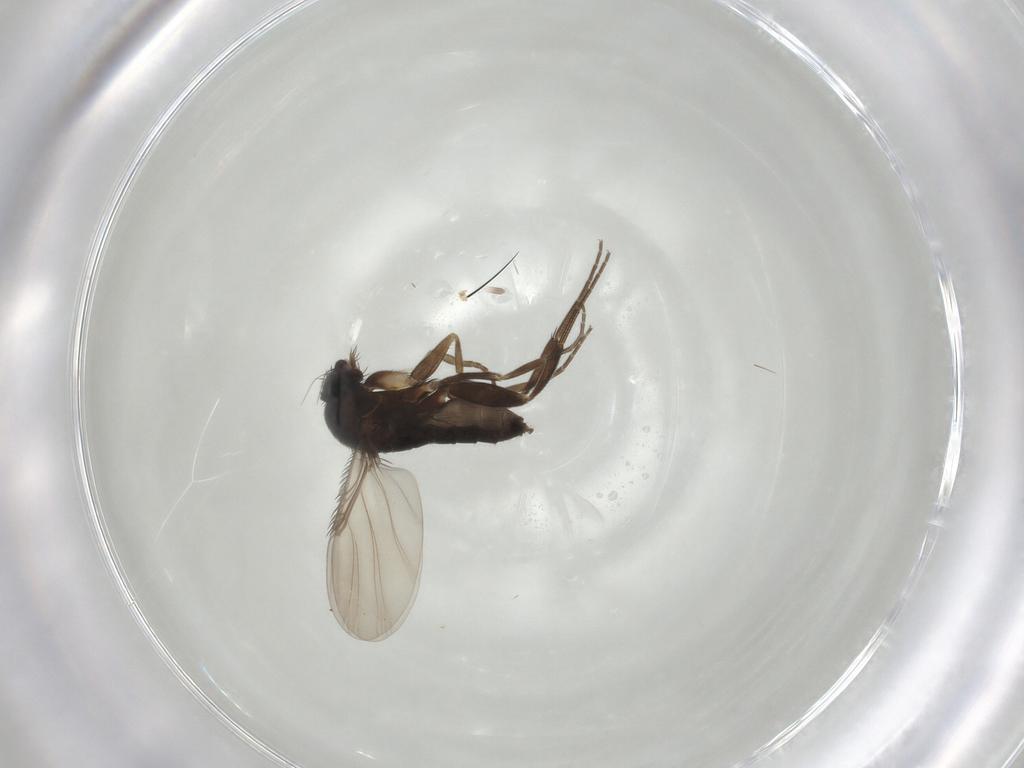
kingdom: Animalia
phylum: Arthropoda
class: Insecta
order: Diptera
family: Phoridae
